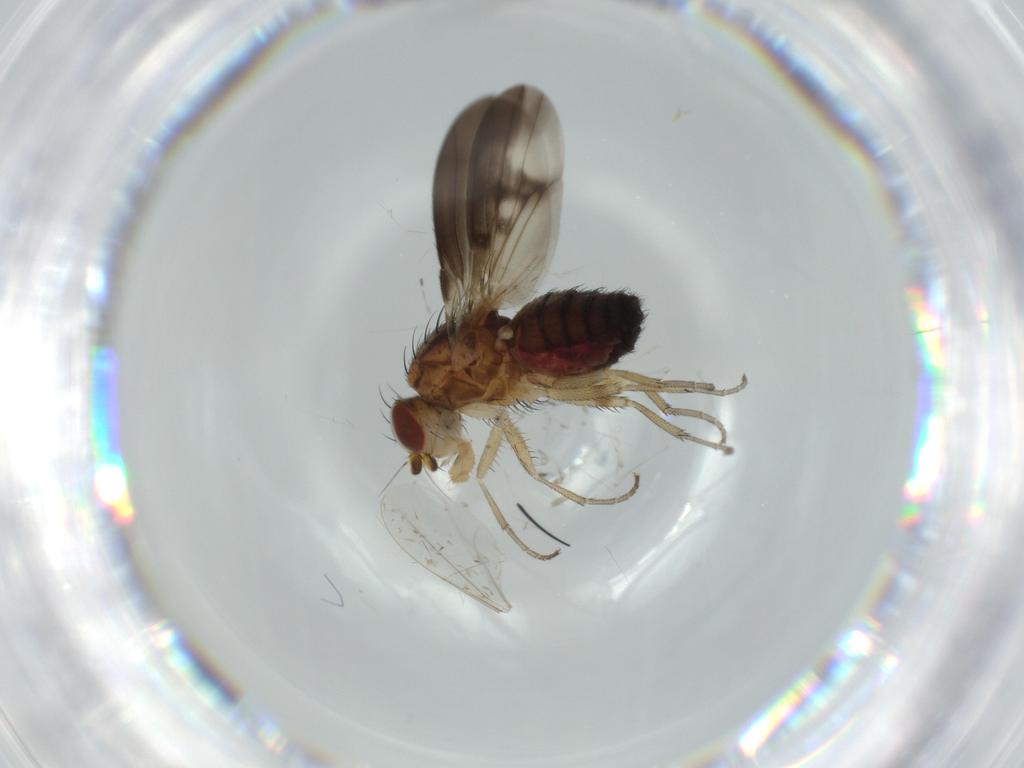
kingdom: Animalia
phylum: Arthropoda
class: Insecta
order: Diptera
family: Heleomyzidae
